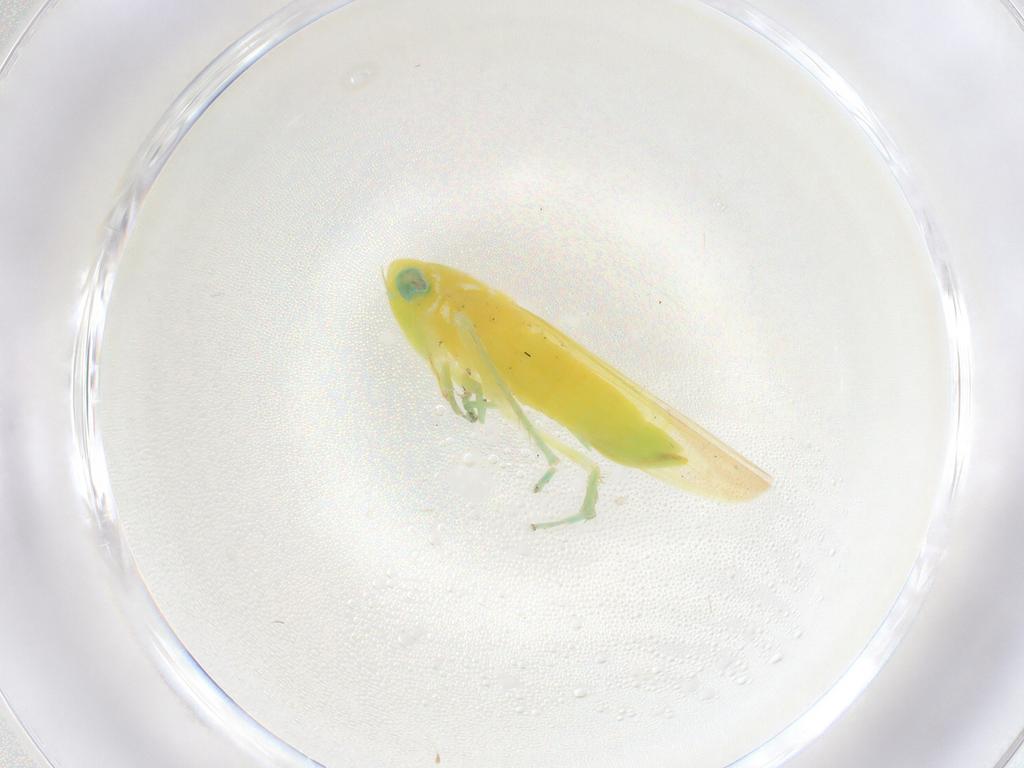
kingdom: Animalia
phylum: Arthropoda
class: Insecta
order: Hemiptera
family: Cicadellidae
